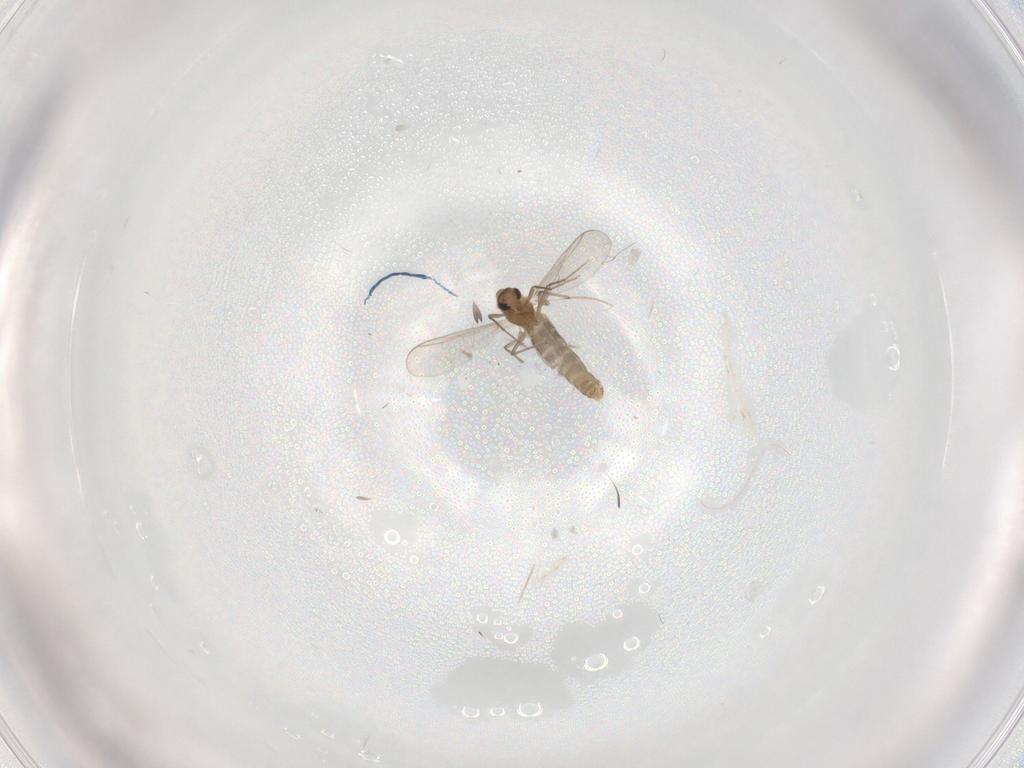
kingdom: Animalia
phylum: Arthropoda
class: Insecta
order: Diptera
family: Chironomidae
